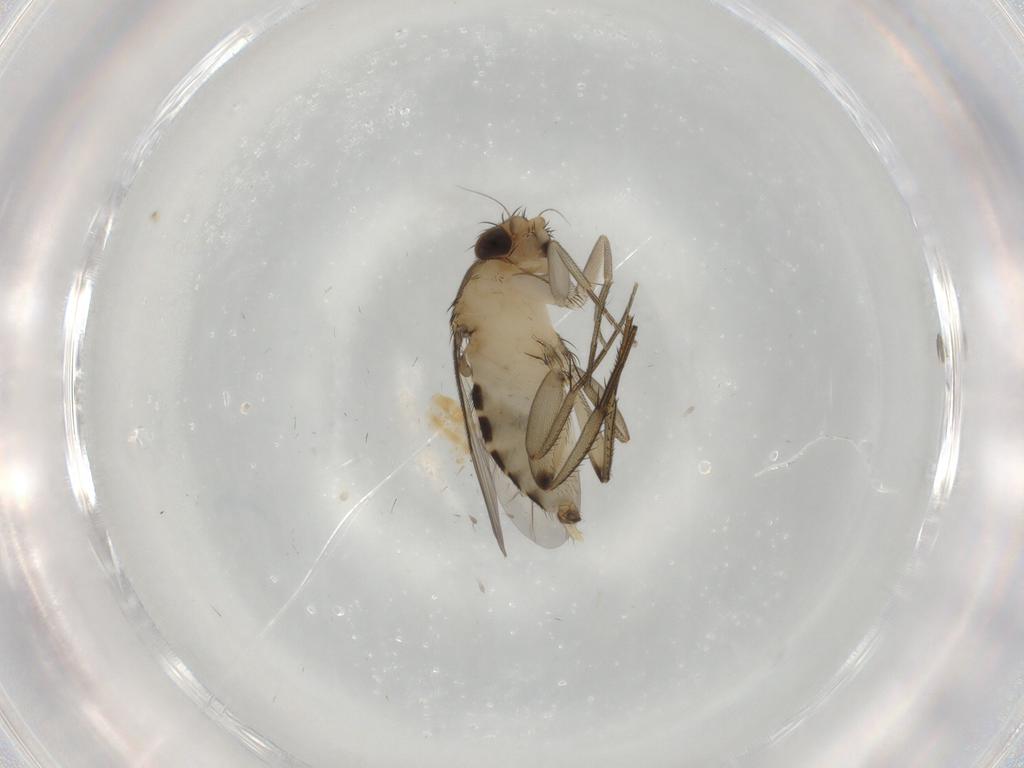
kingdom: Animalia
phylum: Arthropoda
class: Insecta
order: Diptera
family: Phoridae
